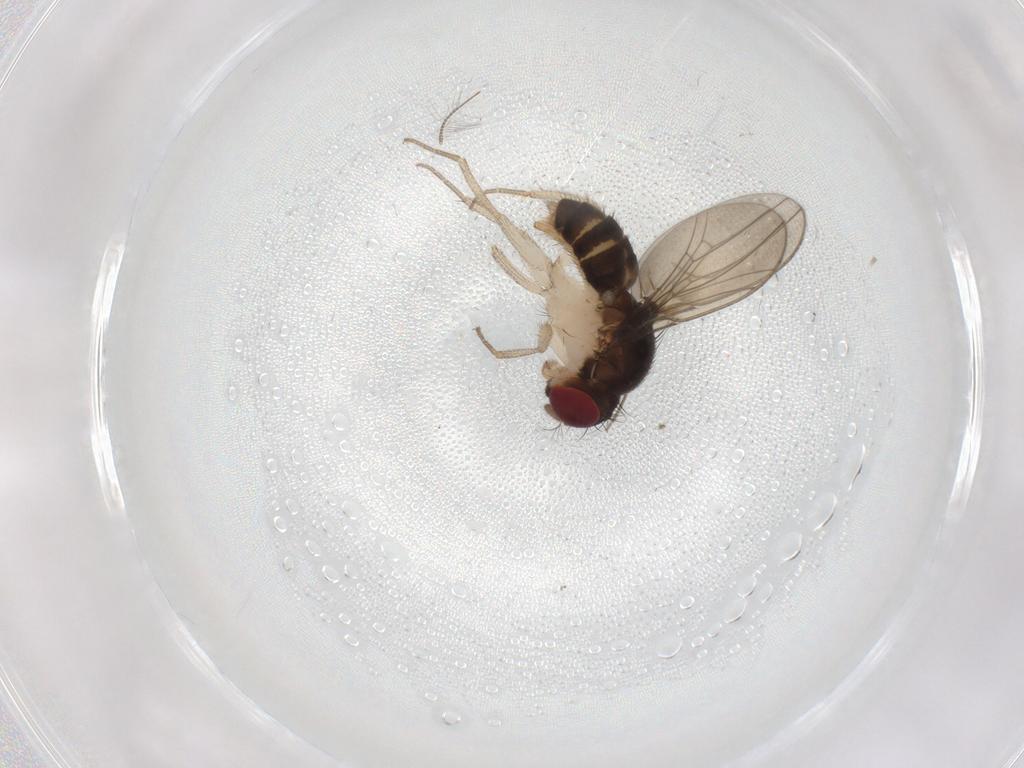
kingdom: Animalia
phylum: Arthropoda
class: Insecta
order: Diptera
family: Drosophilidae
